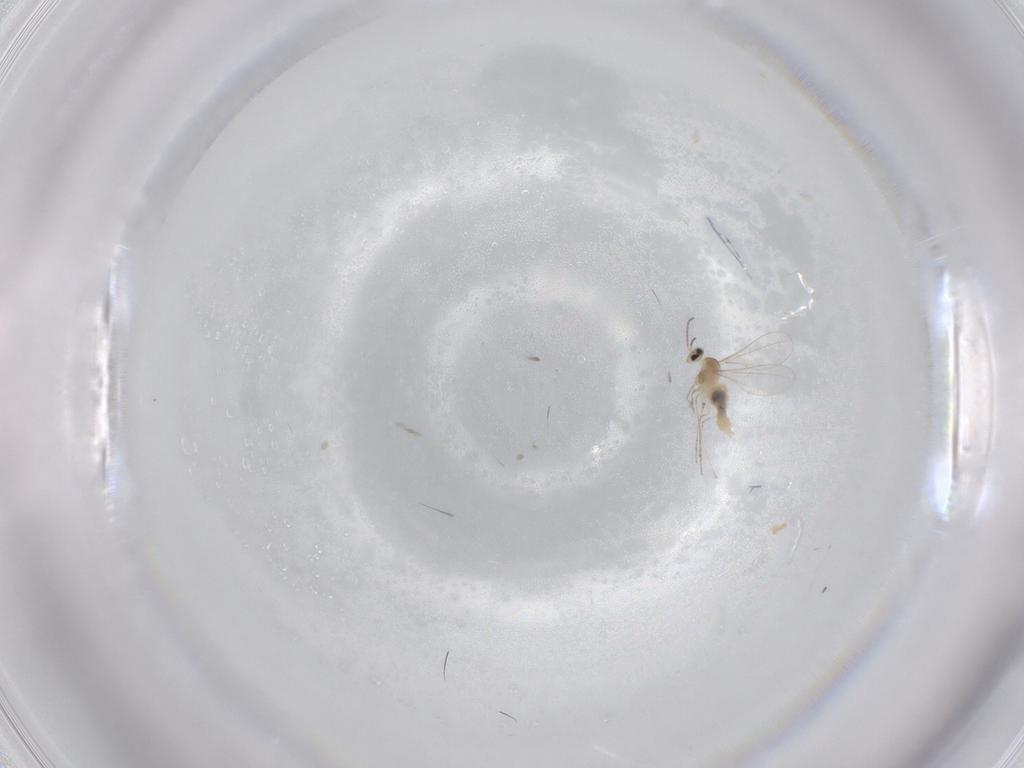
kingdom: Animalia
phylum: Arthropoda
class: Insecta
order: Diptera
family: Cecidomyiidae
